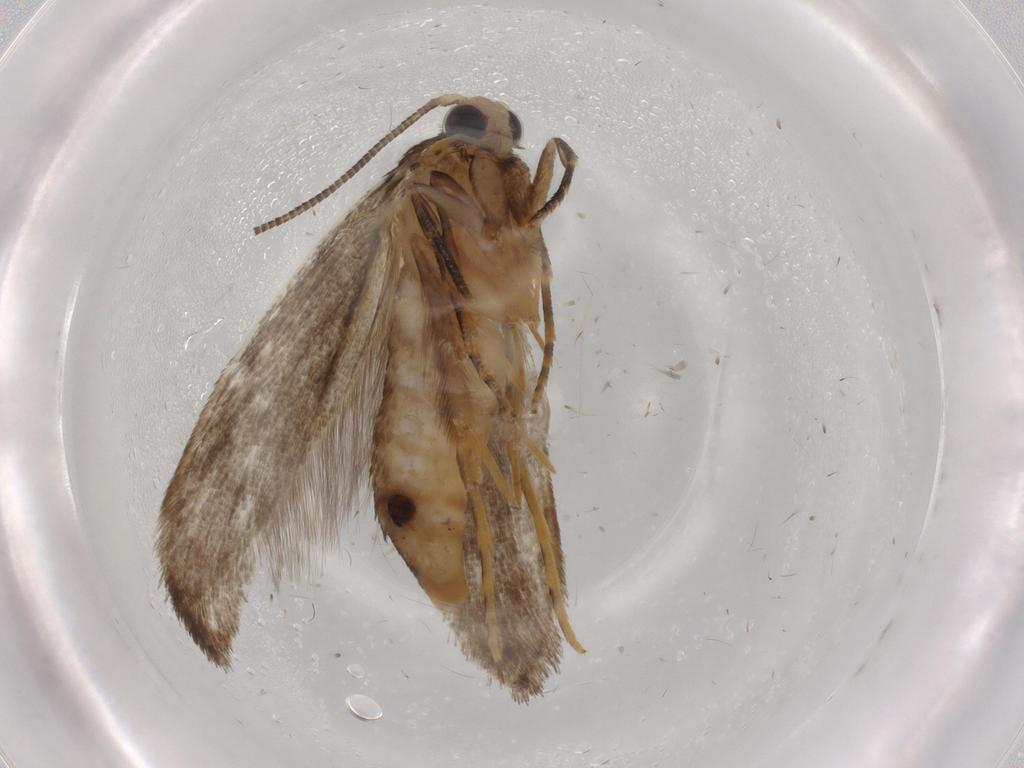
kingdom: Animalia
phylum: Arthropoda
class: Insecta
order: Lepidoptera
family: Tineidae
